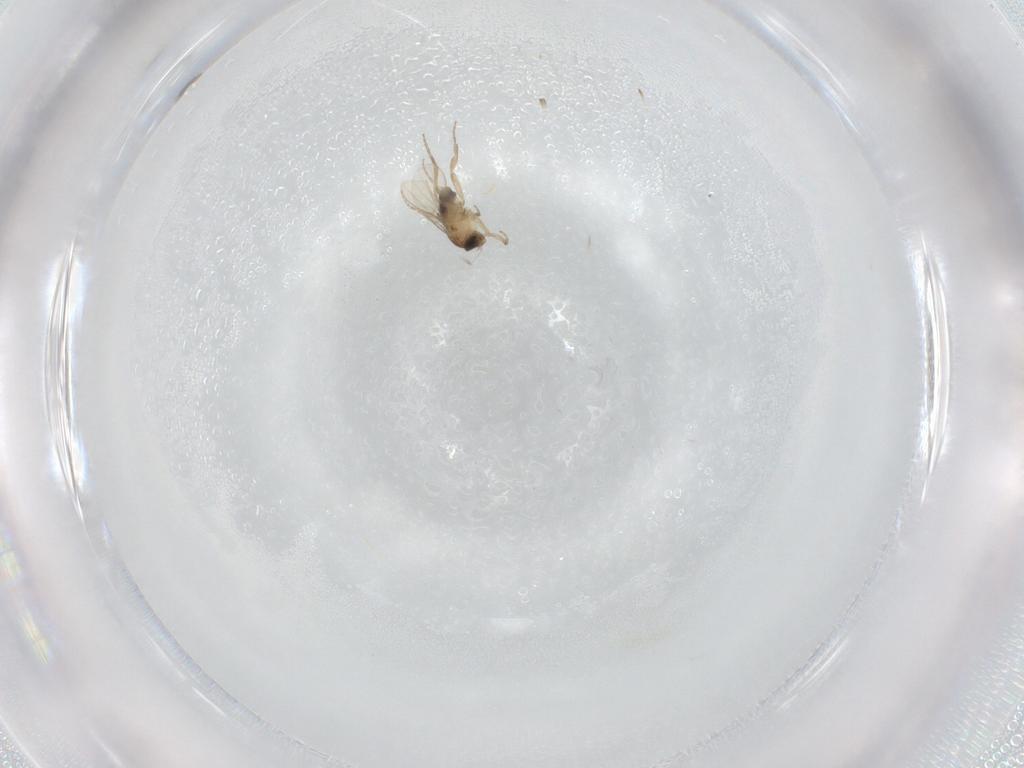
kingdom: Animalia
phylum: Arthropoda
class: Insecta
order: Diptera
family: Phoridae
